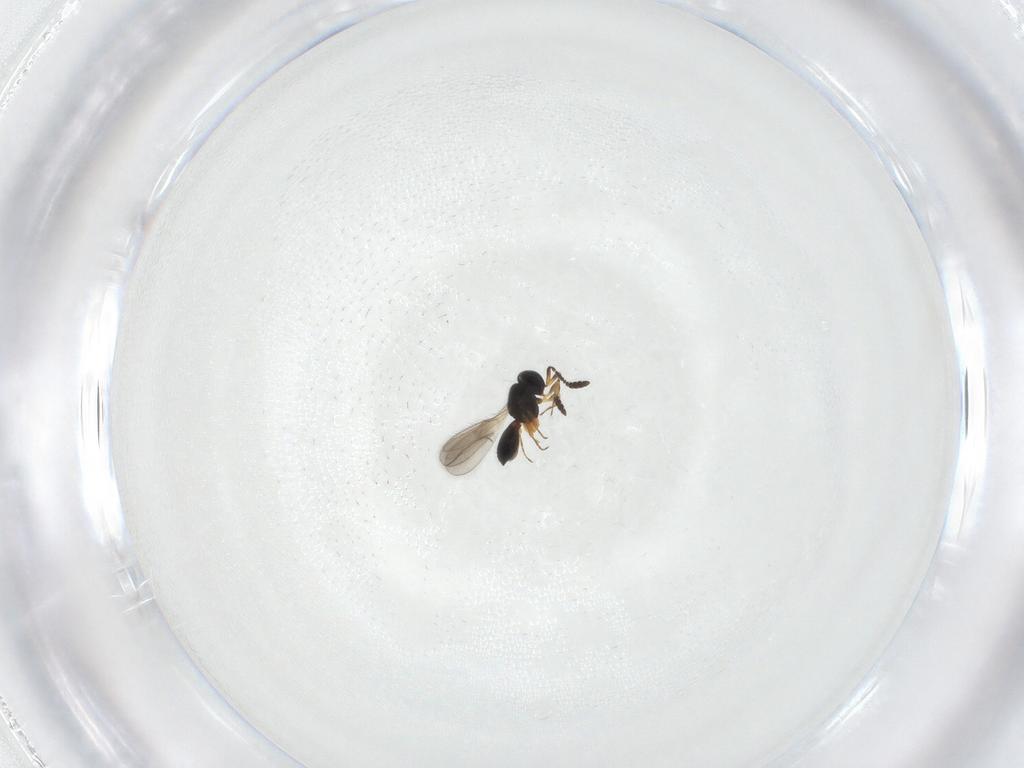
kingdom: Animalia
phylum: Arthropoda
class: Insecta
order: Hymenoptera
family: Scelionidae
